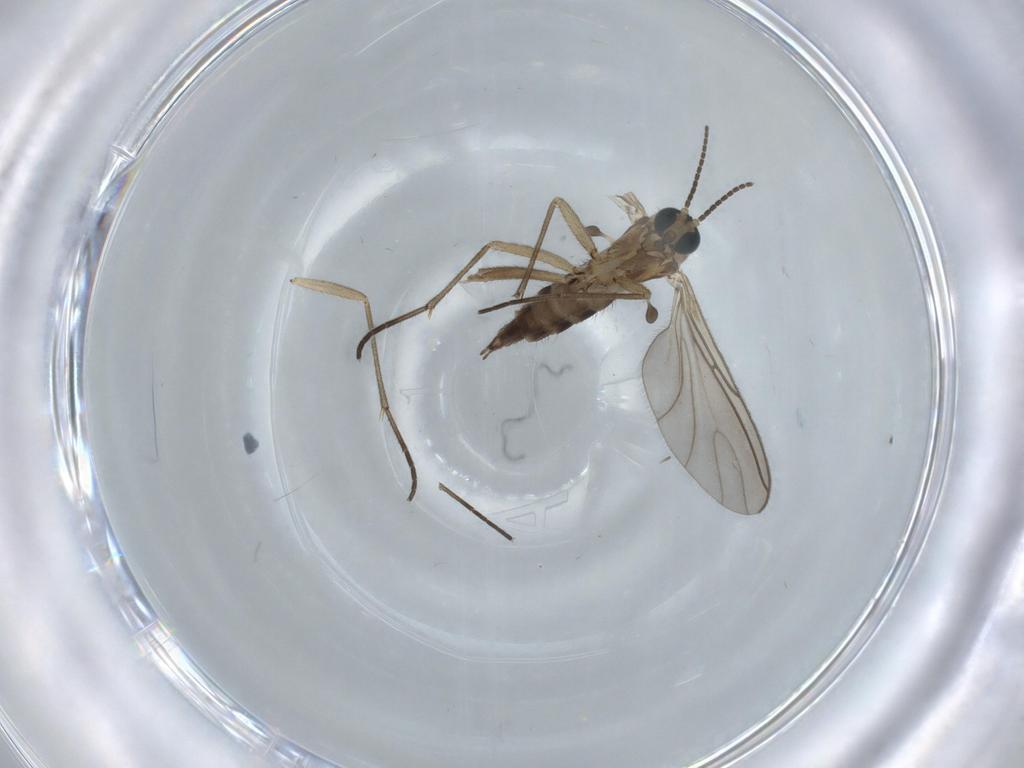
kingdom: Animalia
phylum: Arthropoda
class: Insecta
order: Diptera
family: Sciaridae
